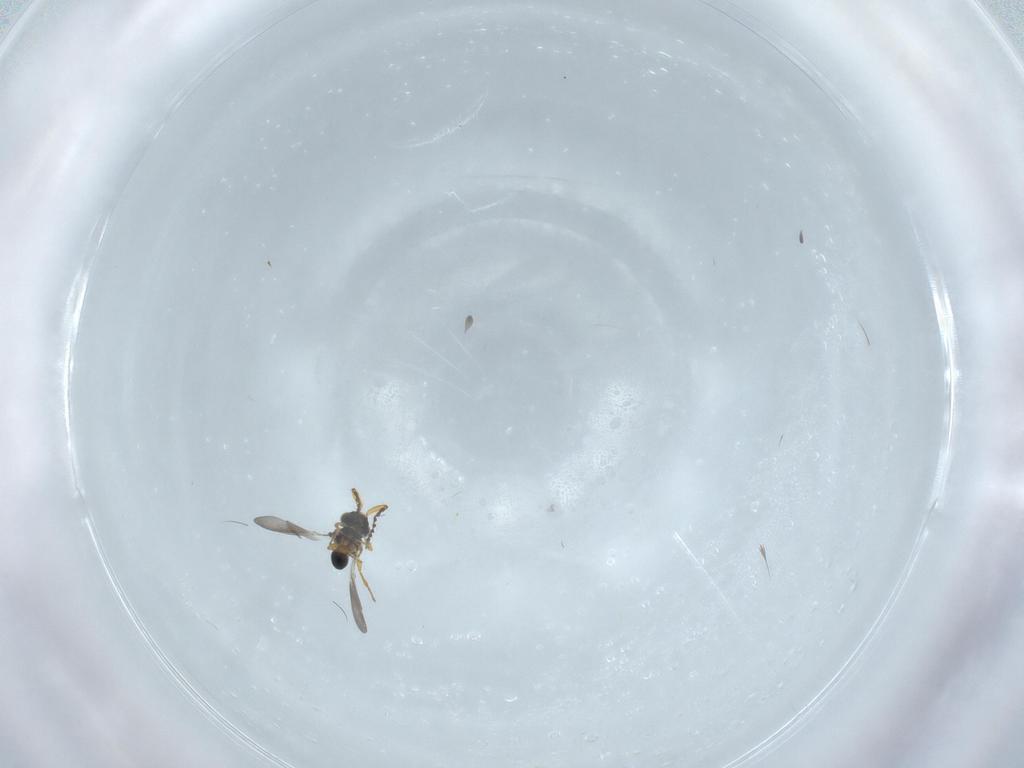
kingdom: Animalia
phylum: Arthropoda
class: Insecta
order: Hymenoptera
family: Platygastridae
